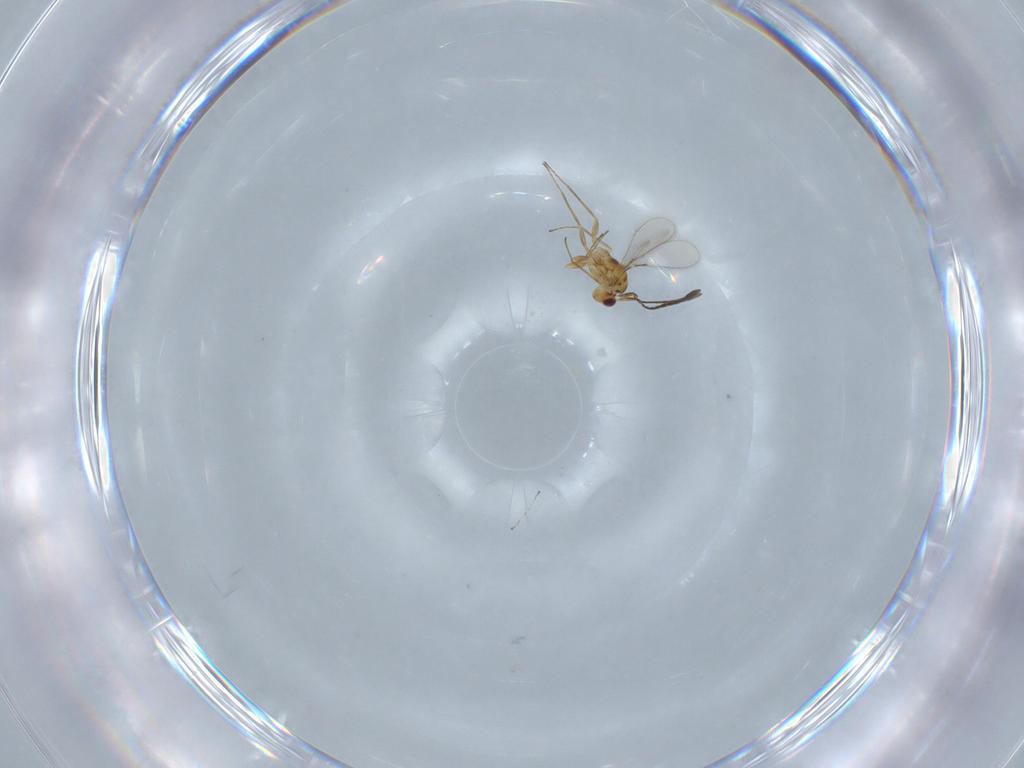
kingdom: Animalia
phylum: Arthropoda
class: Insecta
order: Hymenoptera
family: Mymaridae
